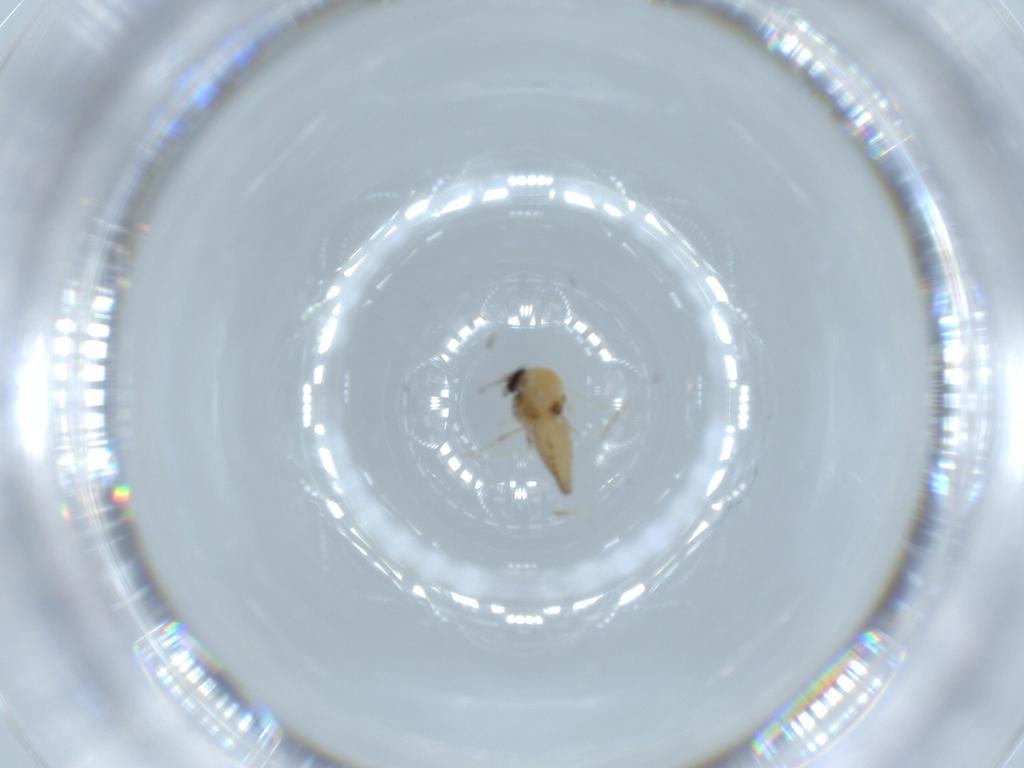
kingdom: Animalia
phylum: Arthropoda
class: Insecta
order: Diptera
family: Ceratopogonidae
